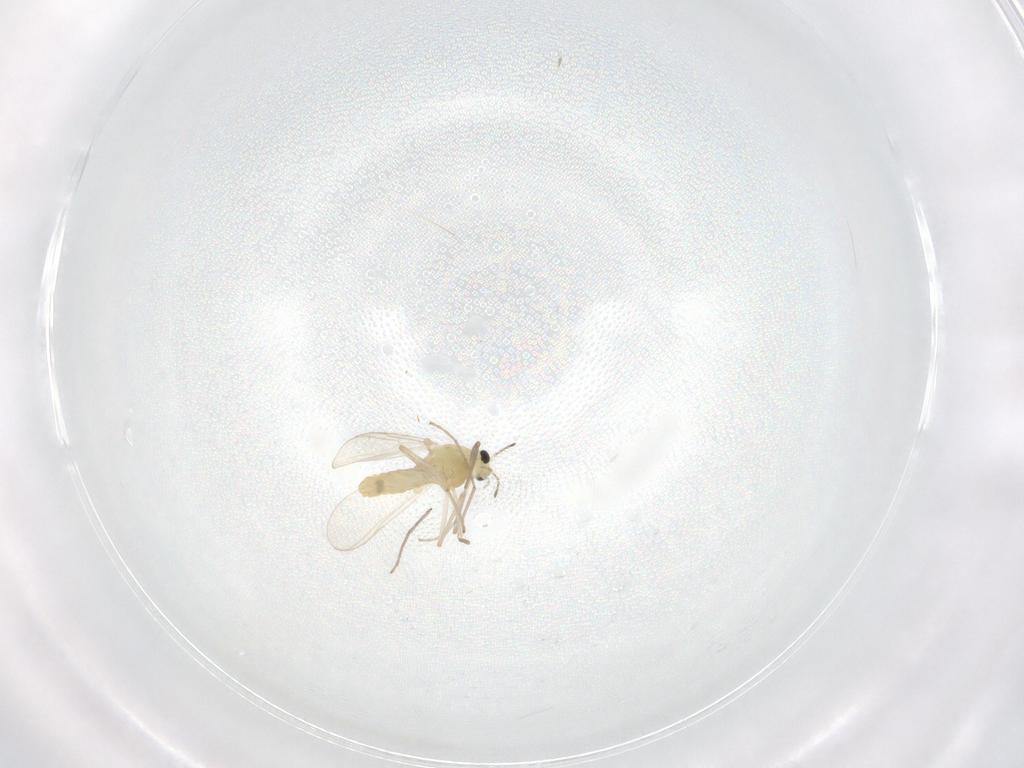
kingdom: Animalia
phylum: Arthropoda
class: Insecta
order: Diptera
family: Chironomidae
